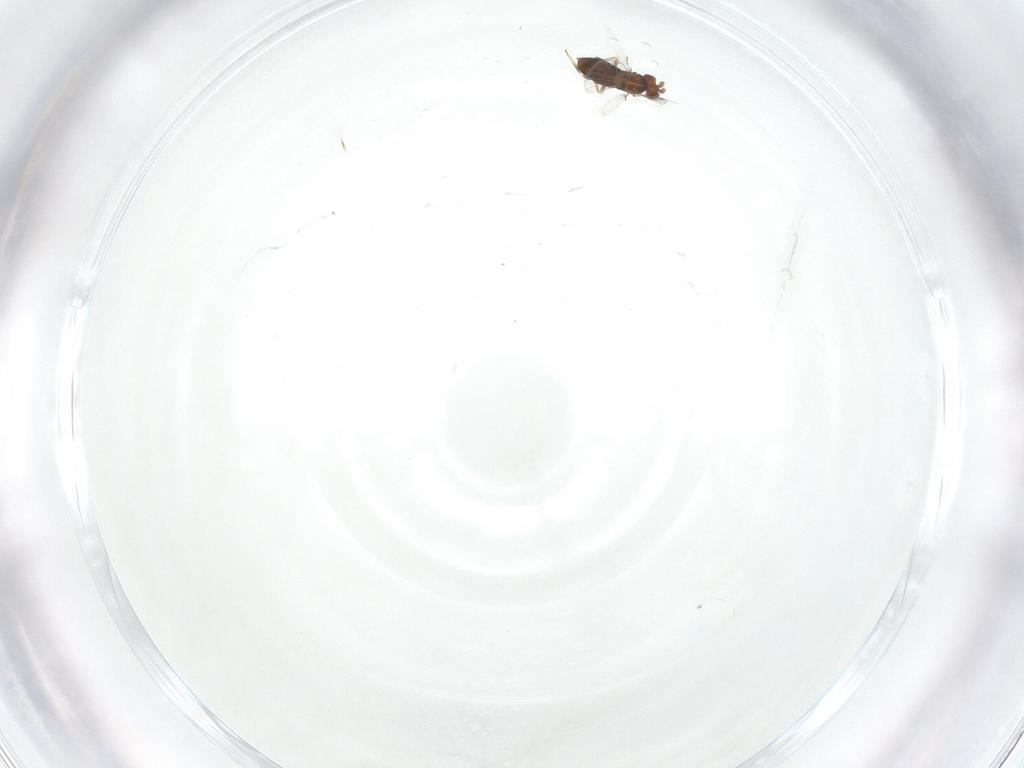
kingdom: Animalia
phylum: Arthropoda
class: Insecta
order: Hymenoptera
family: Agaonidae
